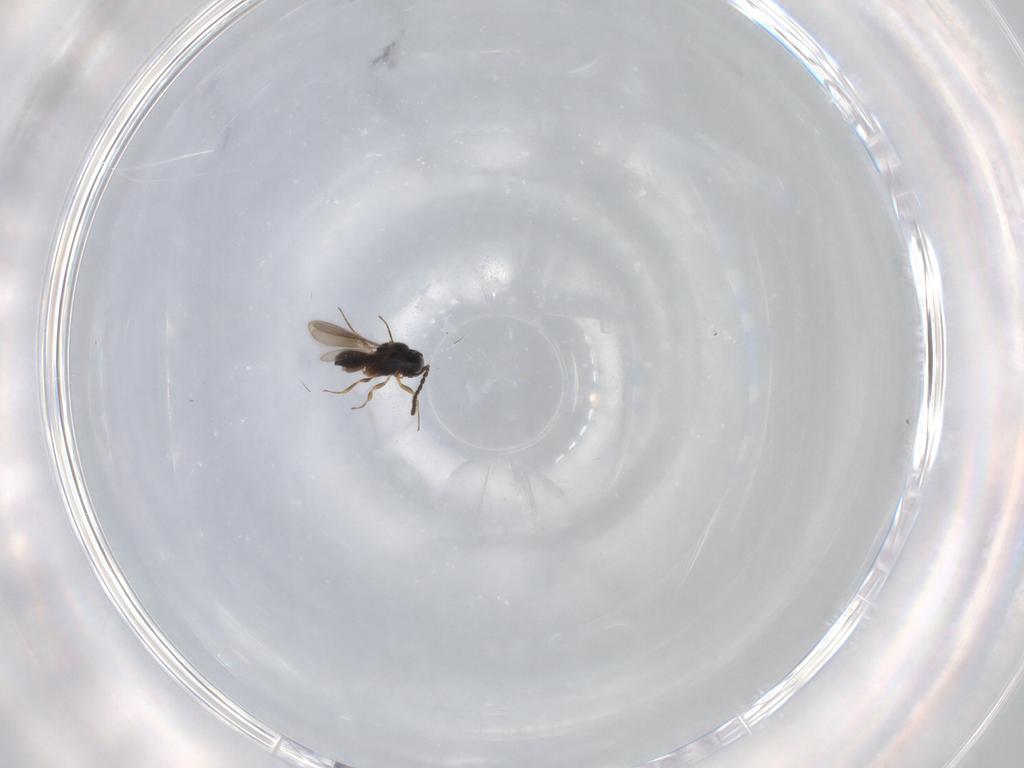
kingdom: Animalia
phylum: Arthropoda
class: Insecta
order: Hymenoptera
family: Scelionidae
